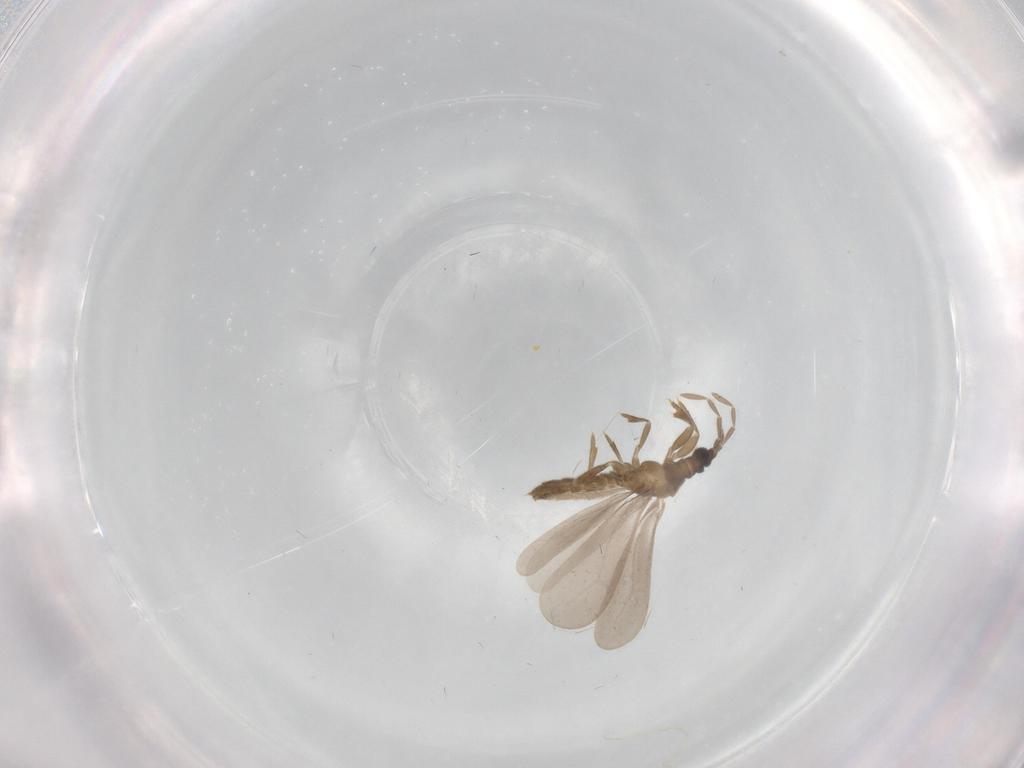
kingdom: Animalia
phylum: Arthropoda
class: Insecta
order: Hemiptera
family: Enicocephalidae
